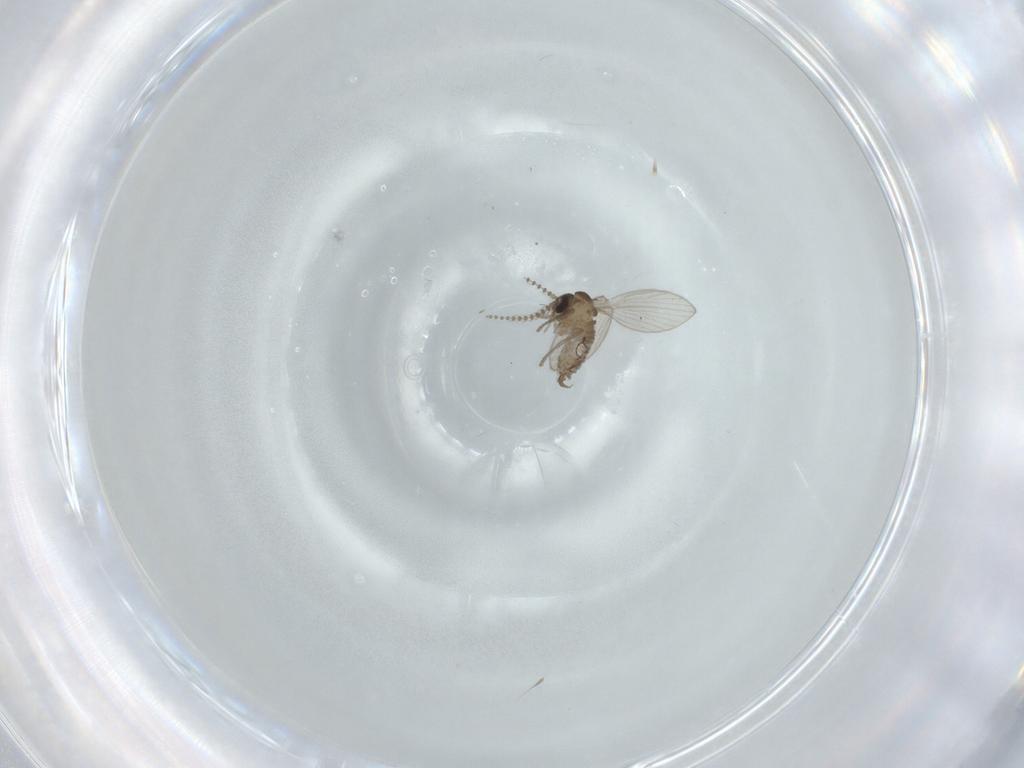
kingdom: Animalia
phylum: Arthropoda
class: Insecta
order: Diptera
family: Psychodidae
